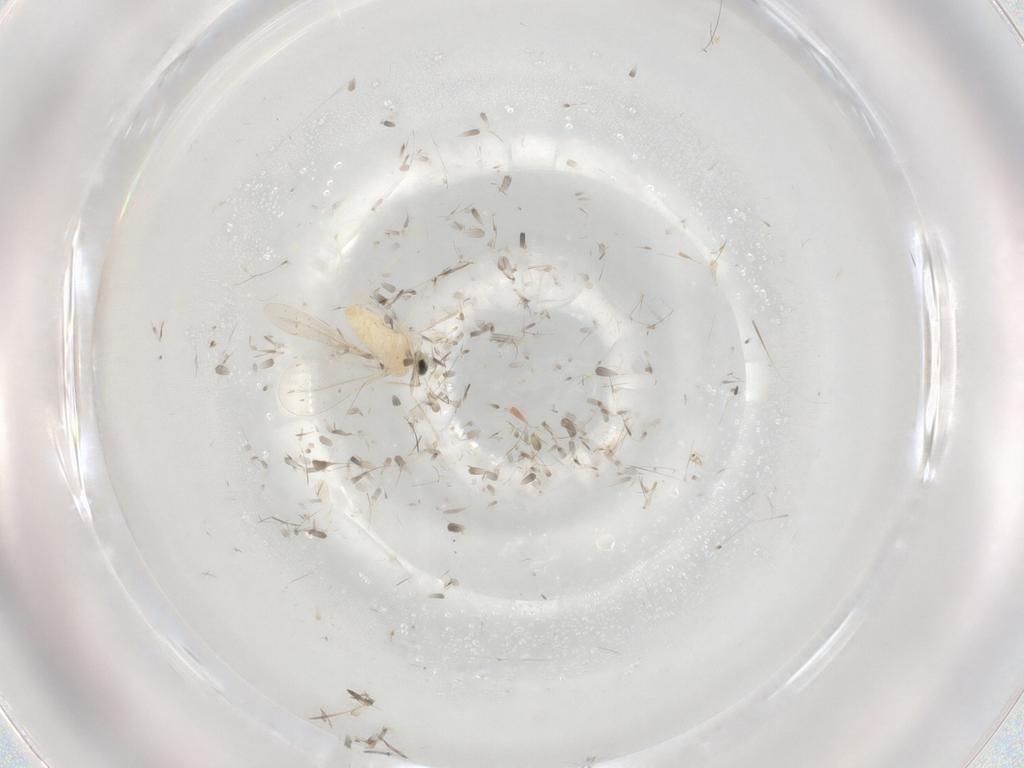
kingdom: Animalia
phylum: Arthropoda
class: Insecta
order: Diptera
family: Cecidomyiidae
